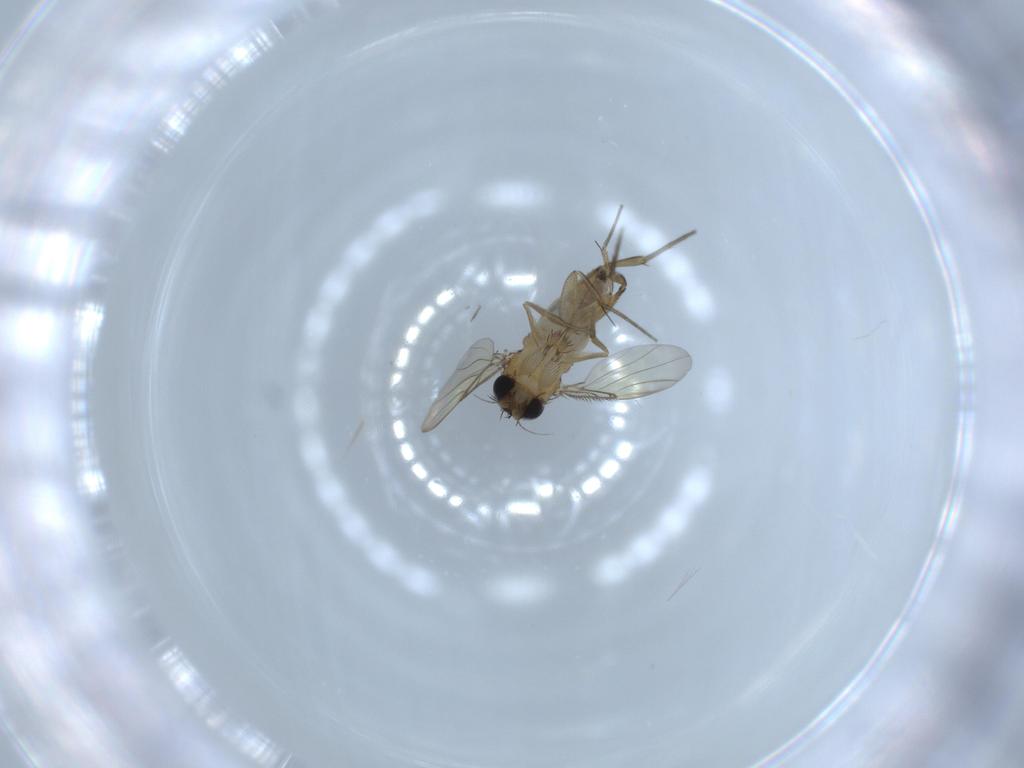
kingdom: Animalia
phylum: Arthropoda
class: Insecta
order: Diptera
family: Phoridae
